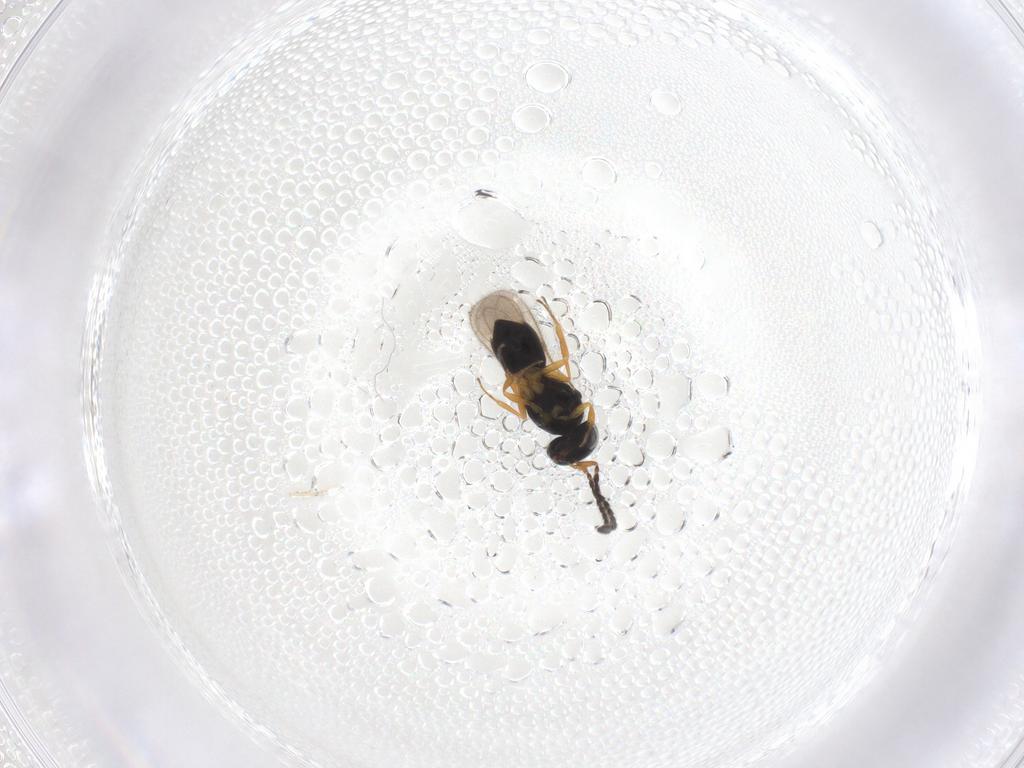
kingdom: Animalia
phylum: Arthropoda
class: Insecta
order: Hymenoptera
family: Scelionidae
